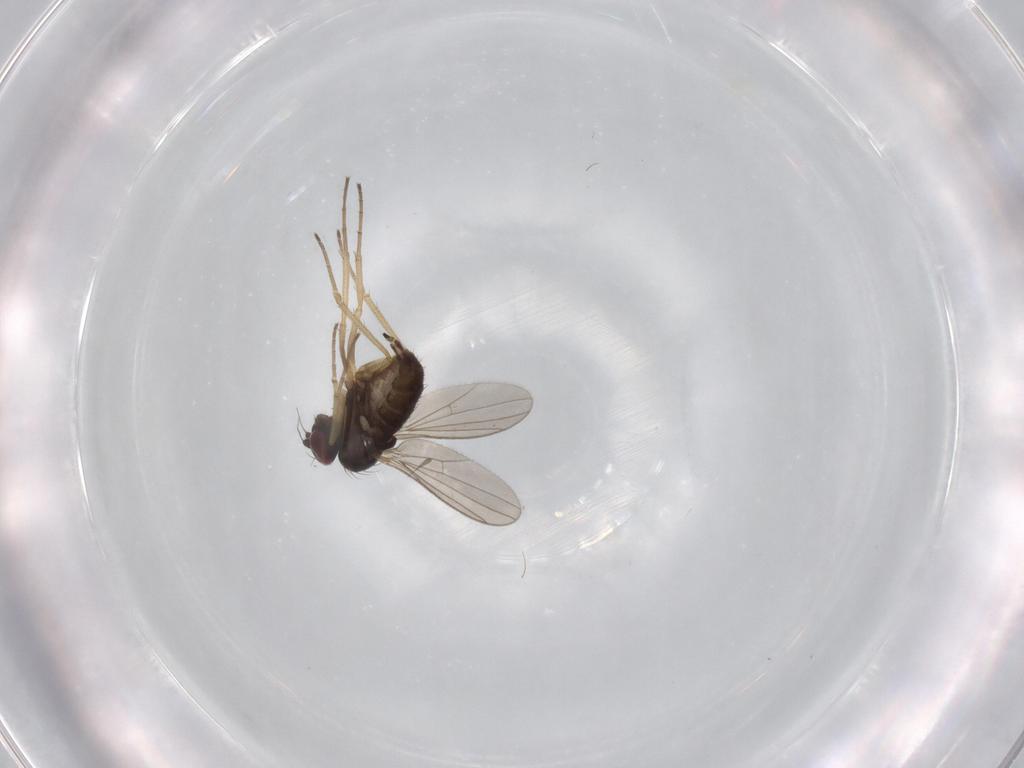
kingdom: Animalia
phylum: Arthropoda
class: Insecta
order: Diptera
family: Dolichopodidae
